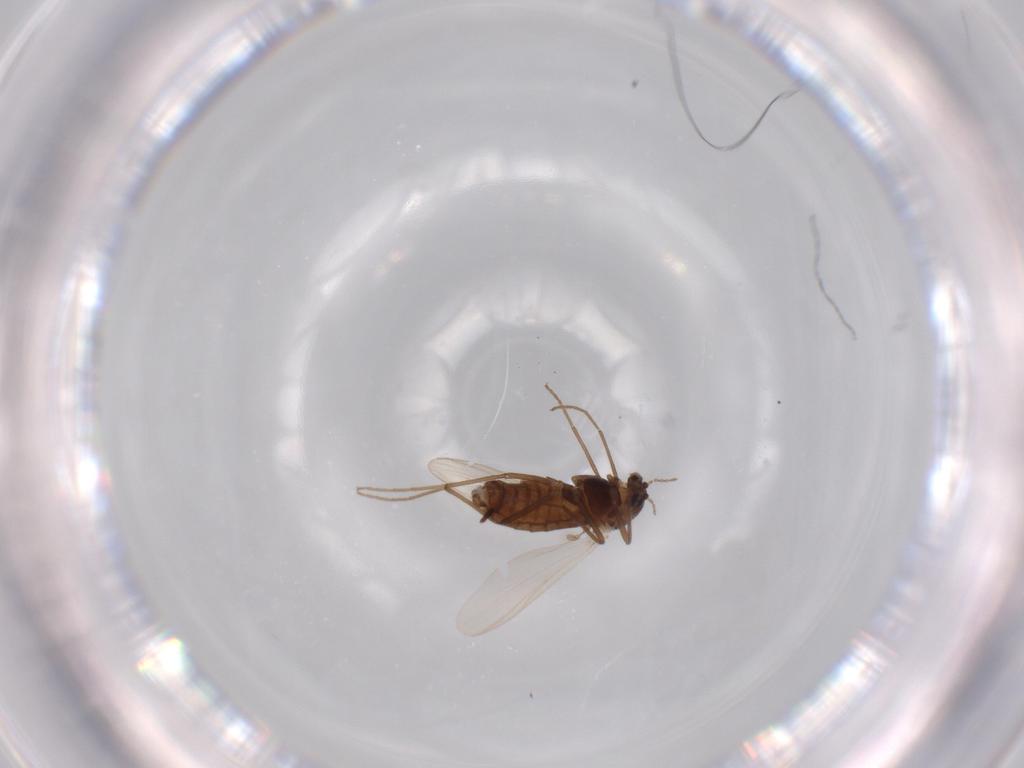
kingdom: Animalia
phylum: Arthropoda
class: Insecta
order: Diptera
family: Chironomidae
